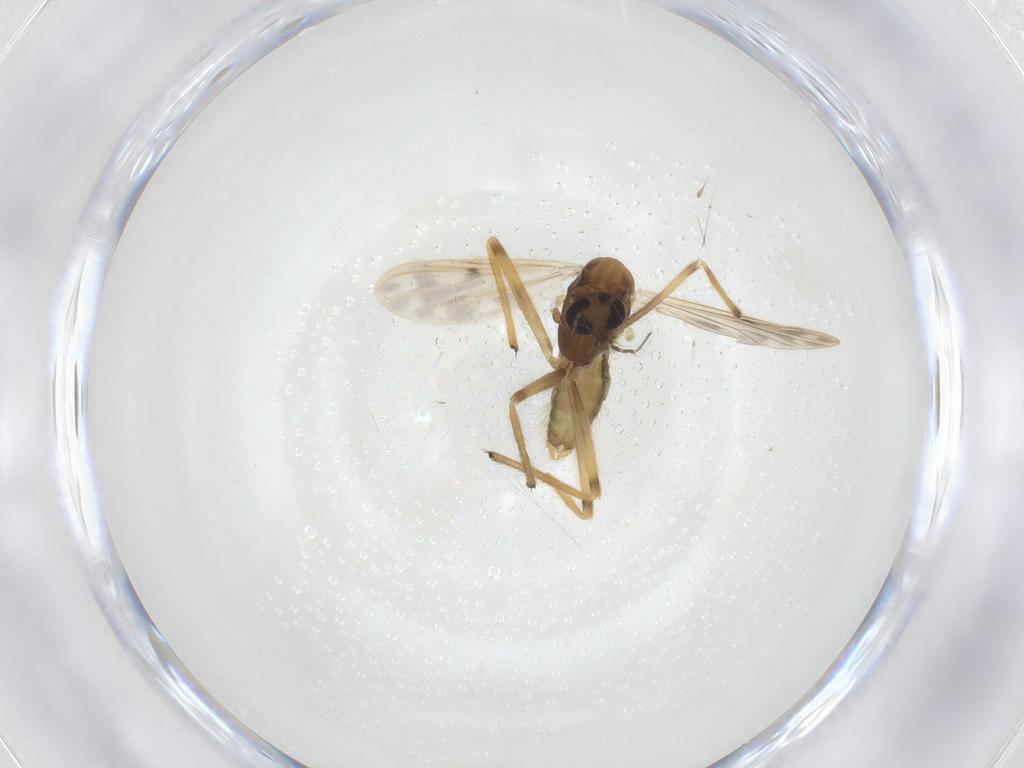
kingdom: Animalia
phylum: Arthropoda
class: Insecta
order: Diptera
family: Chironomidae
